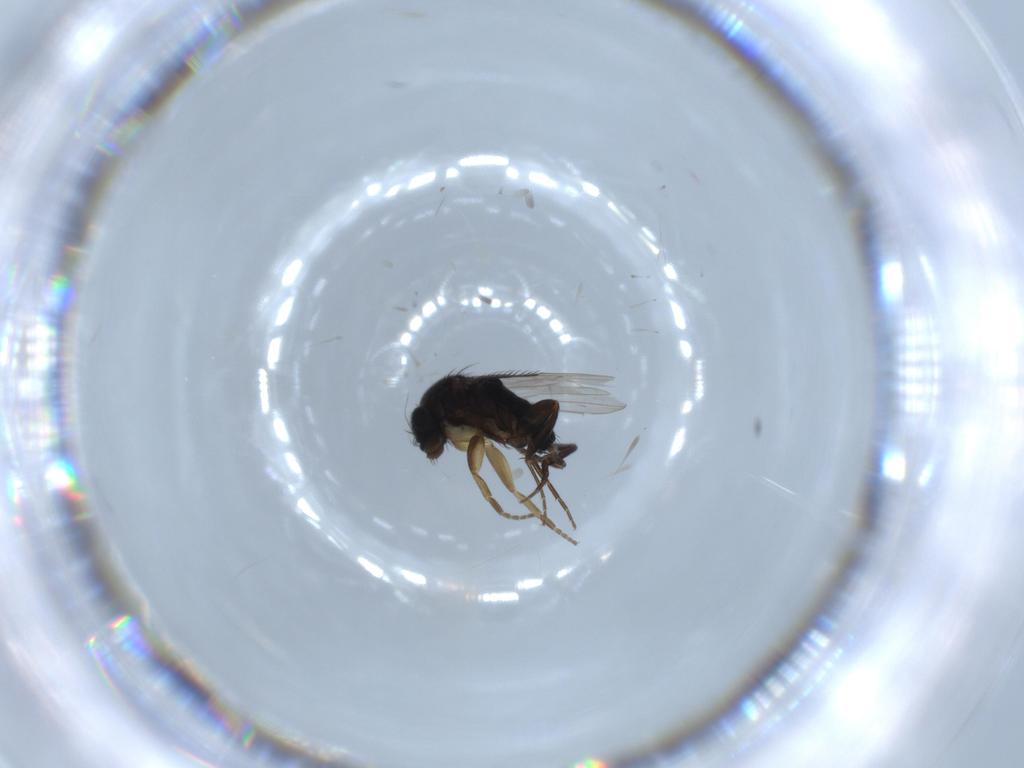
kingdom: Animalia
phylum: Arthropoda
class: Insecta
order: Diptera
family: Phoridae
